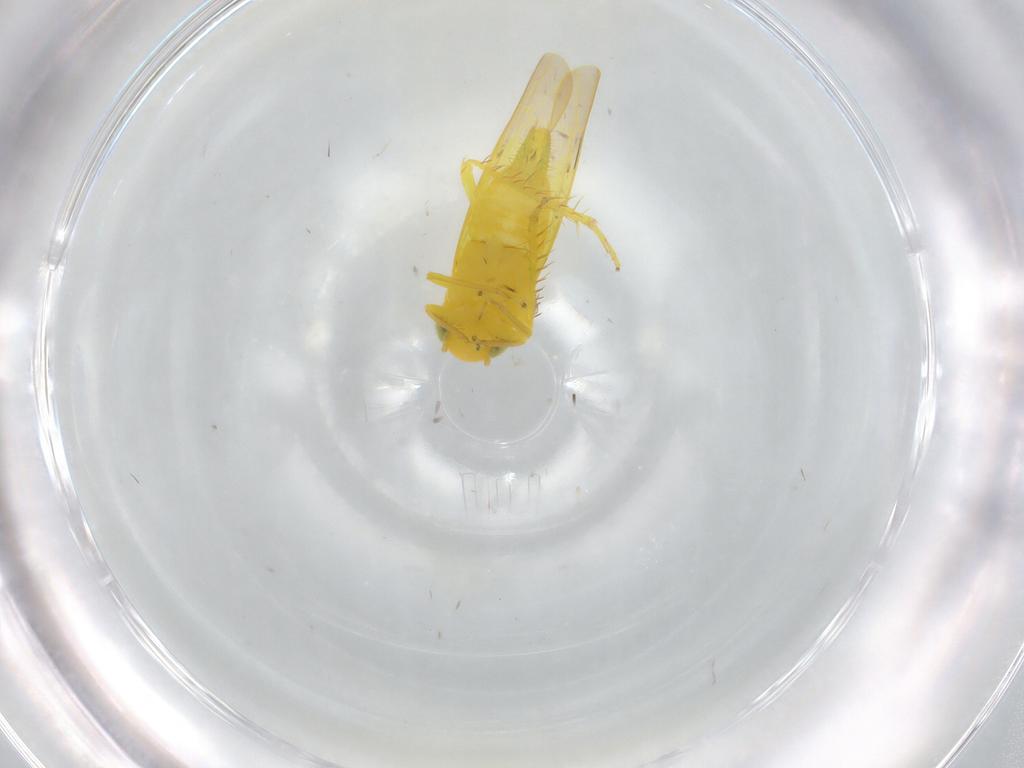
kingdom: Animalia
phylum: Arthropoda
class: Insecta
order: Hemiptera
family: Cicadellidae
